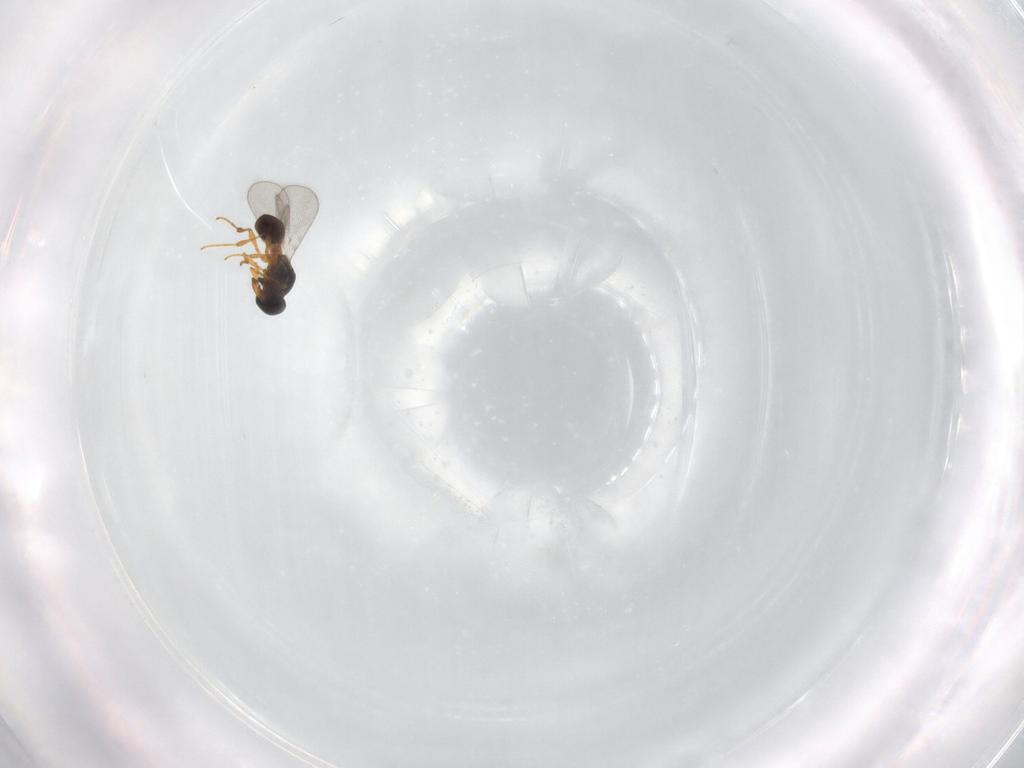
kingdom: Animalia
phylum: Arthropoda
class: Insecta
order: Hymenoptera
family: Platygastridae
